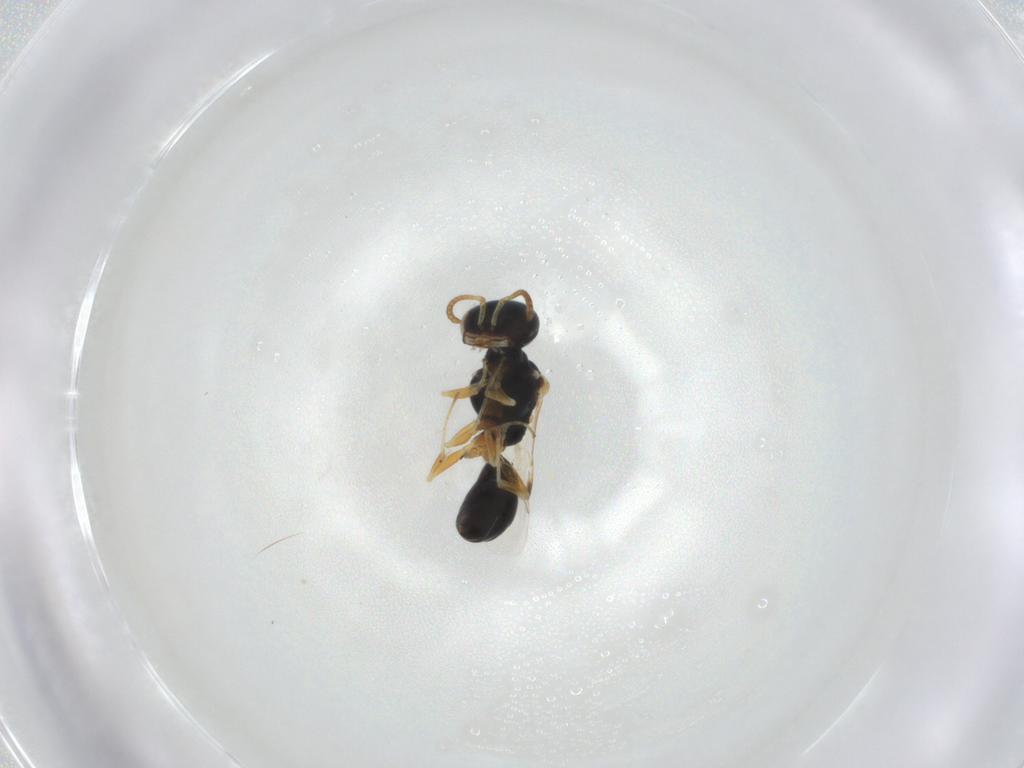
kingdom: Animalia
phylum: Arthropoda
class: Insecta
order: Hymenoptera
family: Pemphredonidae
